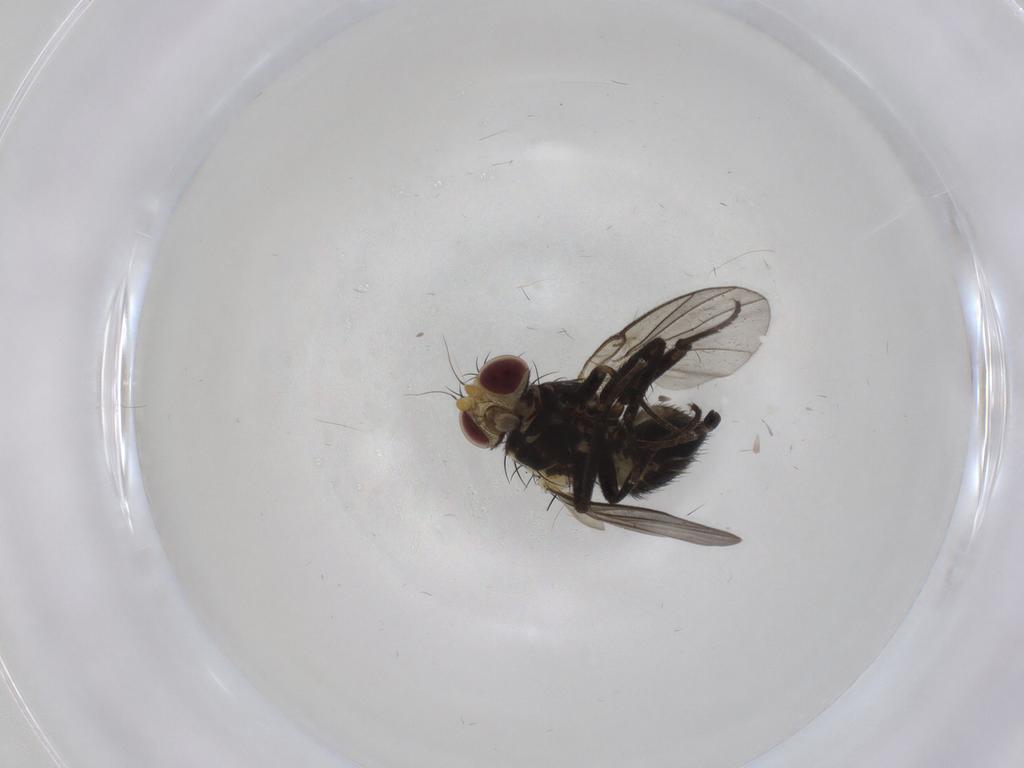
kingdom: Animalia
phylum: Arthropoda
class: Insecta
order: Diptera
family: Agromyzidae
